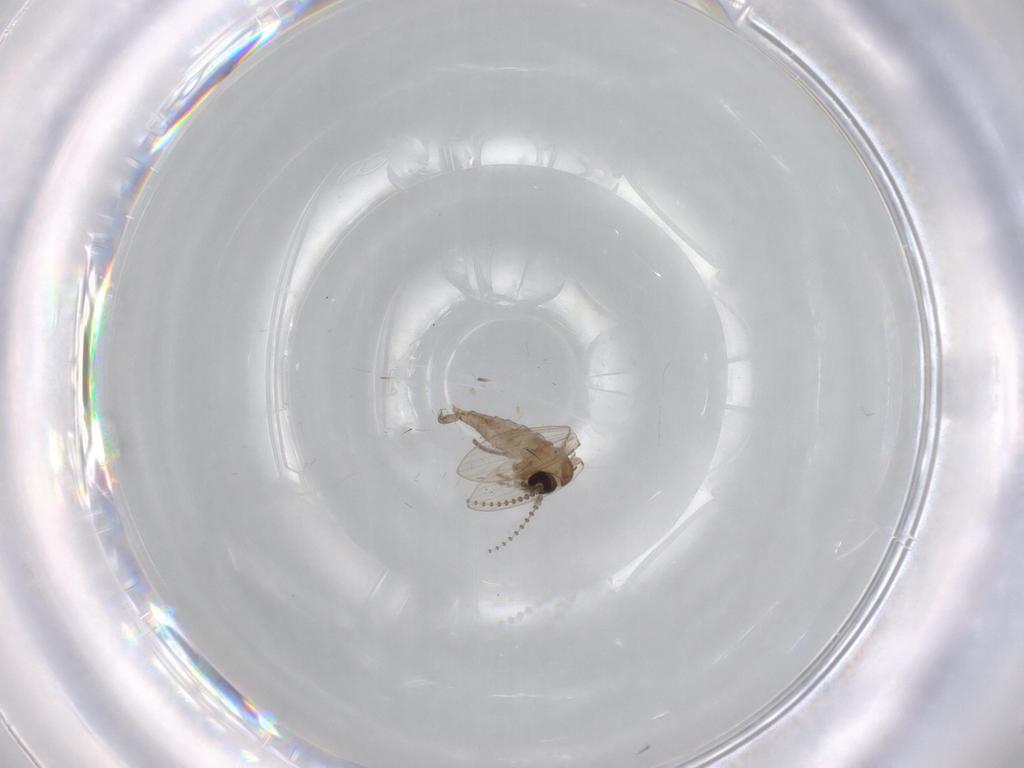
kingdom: Animalia
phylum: Arthropoda
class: Insecta
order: Diptera
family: Psychodidae
